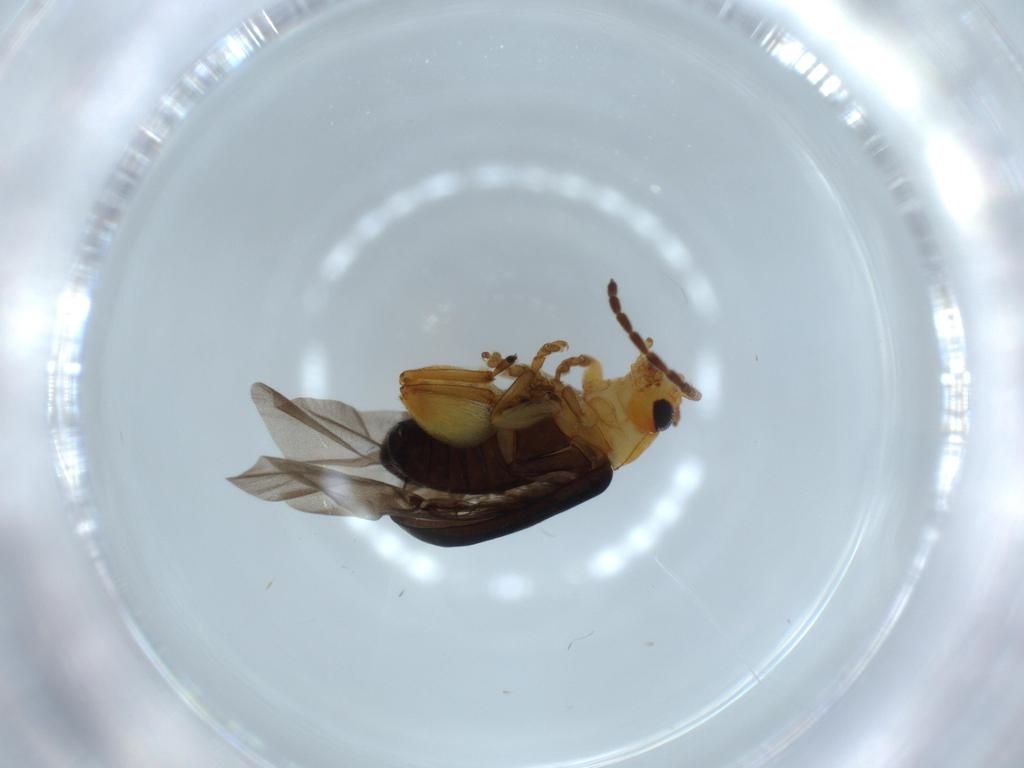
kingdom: Animalia
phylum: Arthropoda
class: Insecta
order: Coleoptera
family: Chrysomelidae
